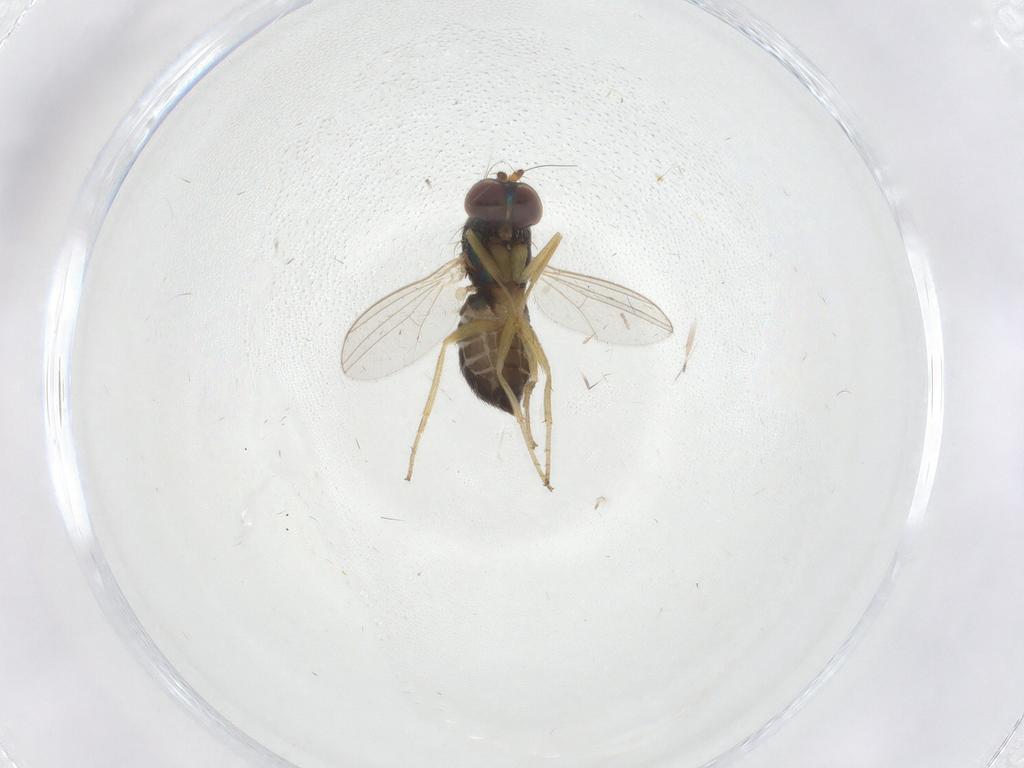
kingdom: Animalia
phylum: Arthropoda
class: Insecta
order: Diptera
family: Dolichopodidae
